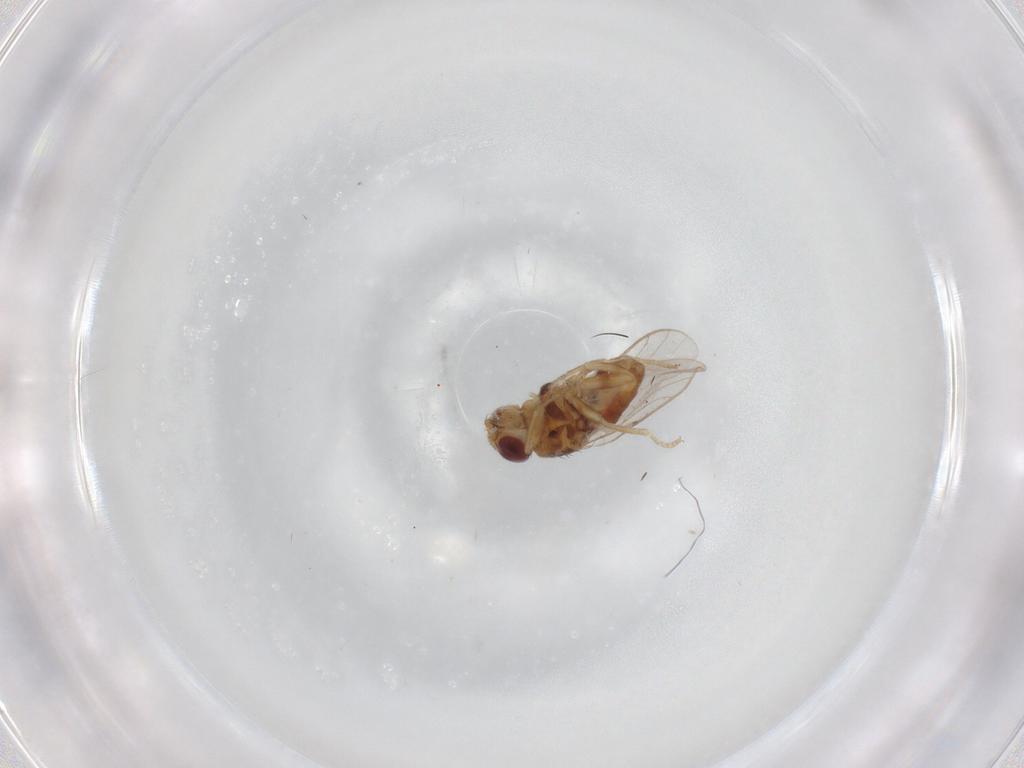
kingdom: Animalia
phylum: Arthropoda
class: Insecta
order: Diptera
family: Chloropidae
